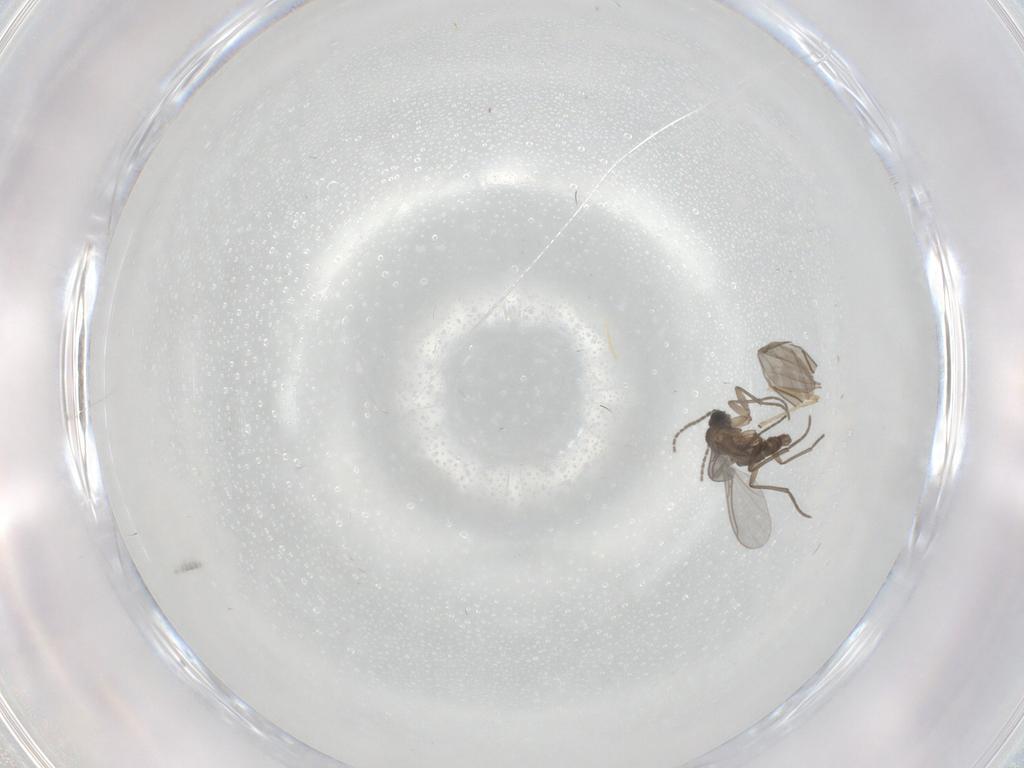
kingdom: Animalia
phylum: Arthropoda
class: Insecta
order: Diptera
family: Sciaridae
